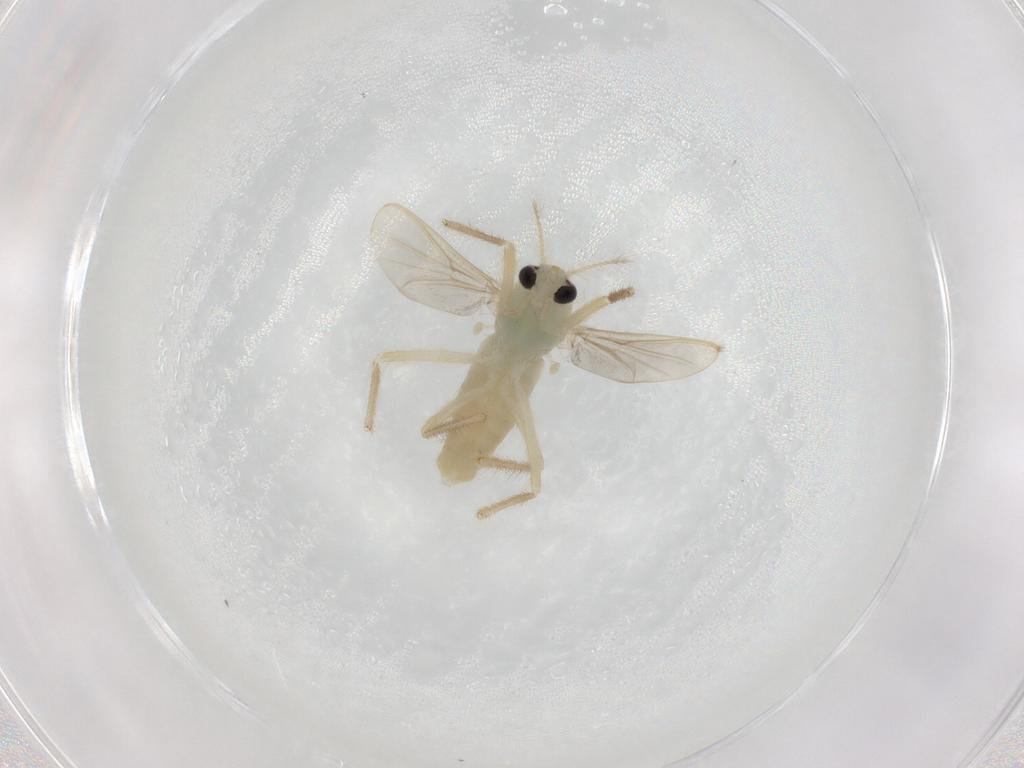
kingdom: Animalia
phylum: Arthropoda
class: Insecta
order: Diptera
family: Chironomidae
